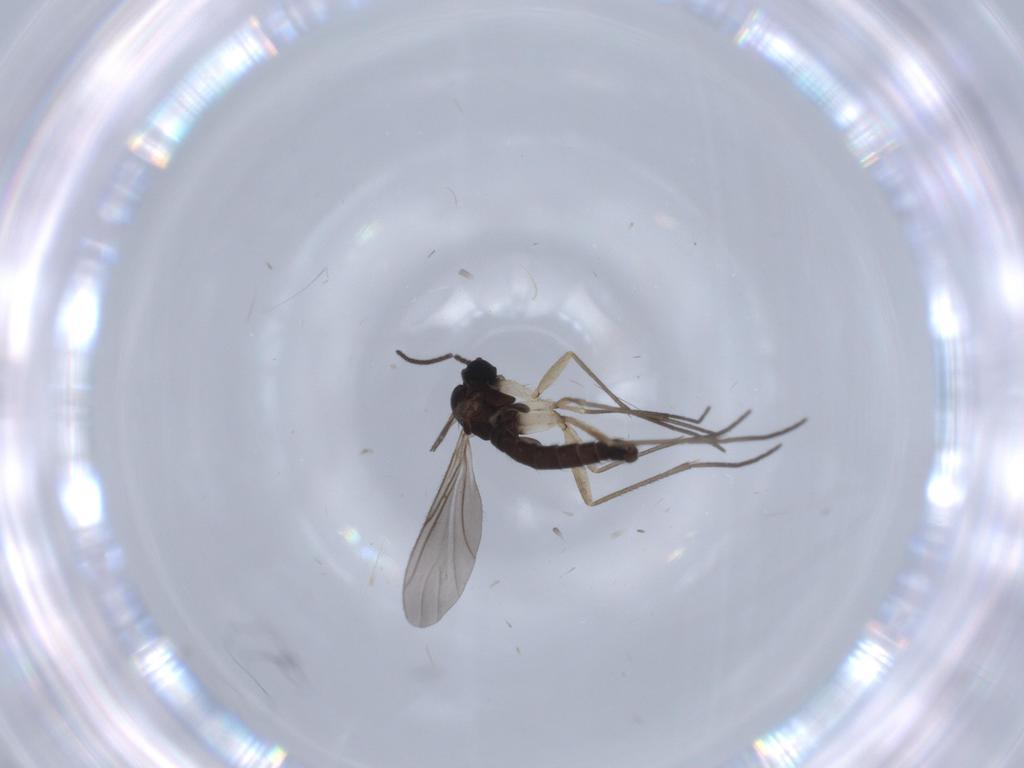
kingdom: Animalia
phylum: Arthropoda
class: Insecta
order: Diptera
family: Sciaridae
